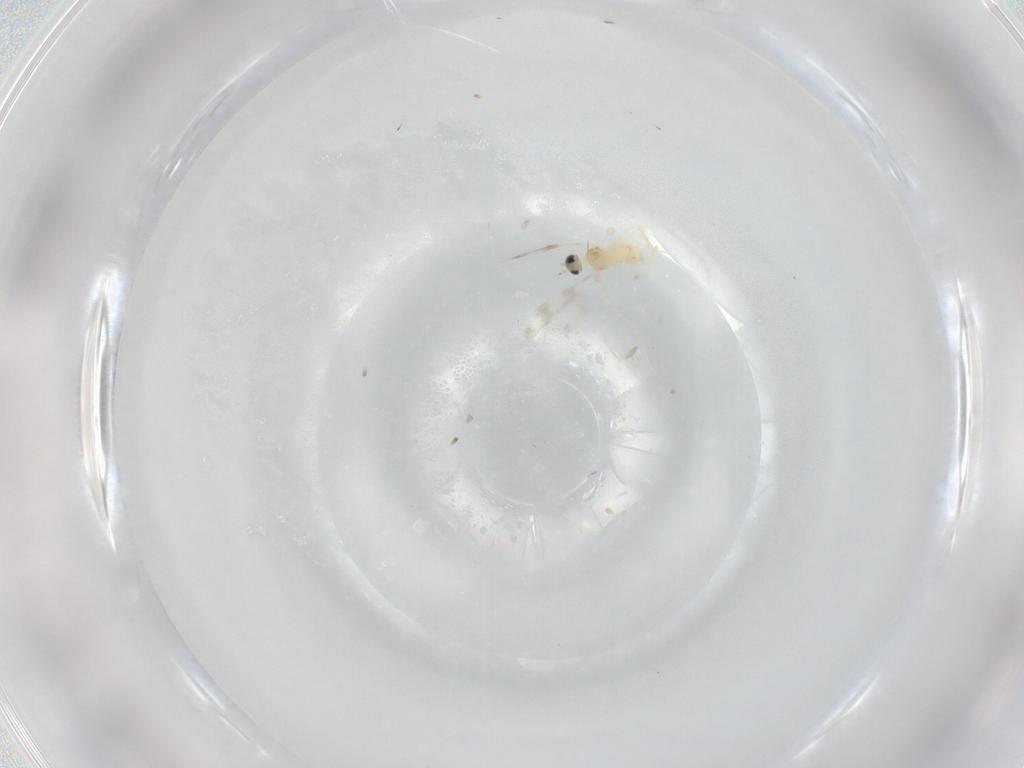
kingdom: Animalia
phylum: Arthropoda
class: Insecta
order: Diptera
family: Cecidomyiidae
